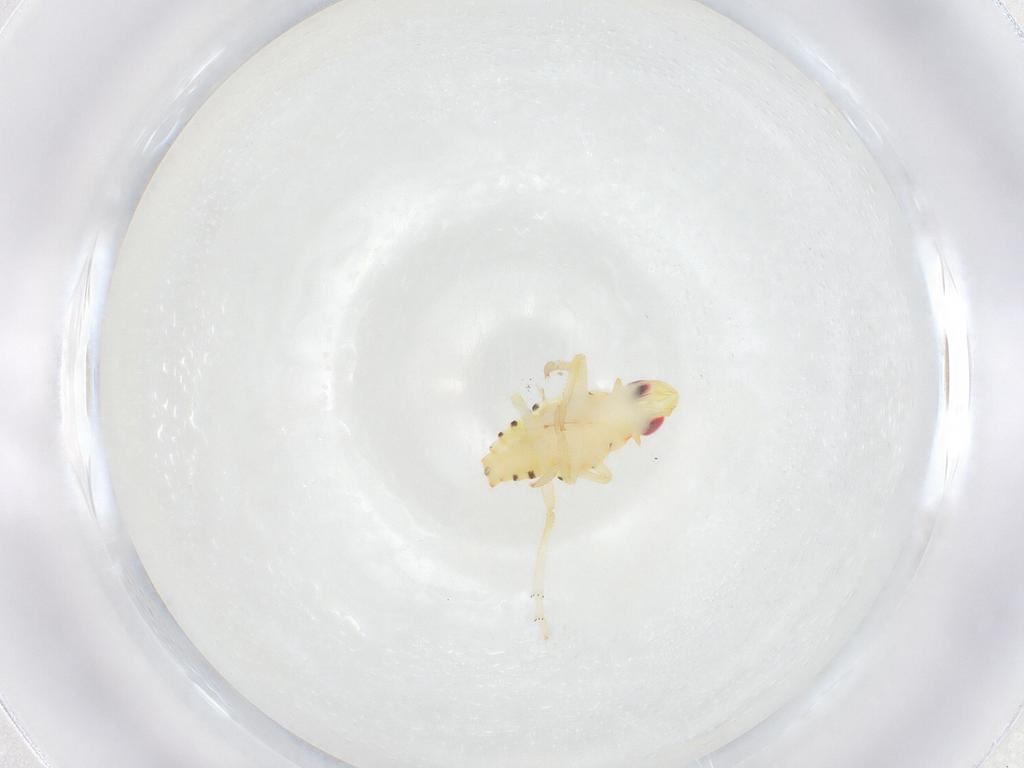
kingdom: Animalia
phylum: Arthropoda
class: Insecta
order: Hemiptera
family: Tropiduchidae
